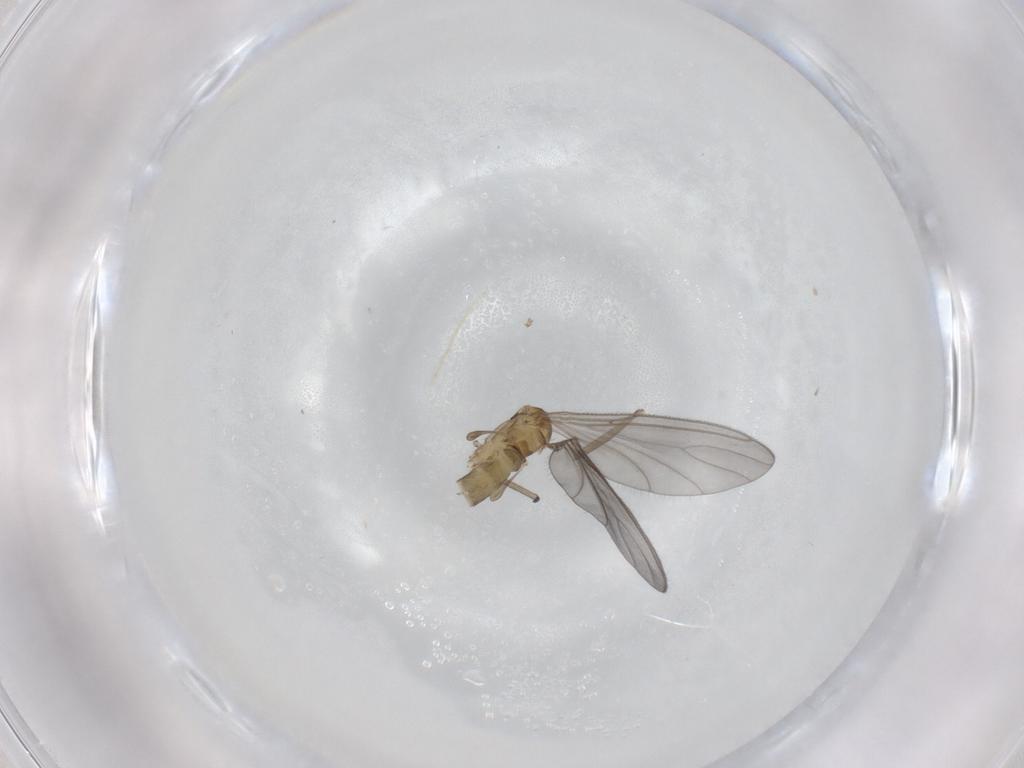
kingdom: Animalia
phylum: Arthropoda
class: Insecta
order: Diptera
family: Sciaridae
